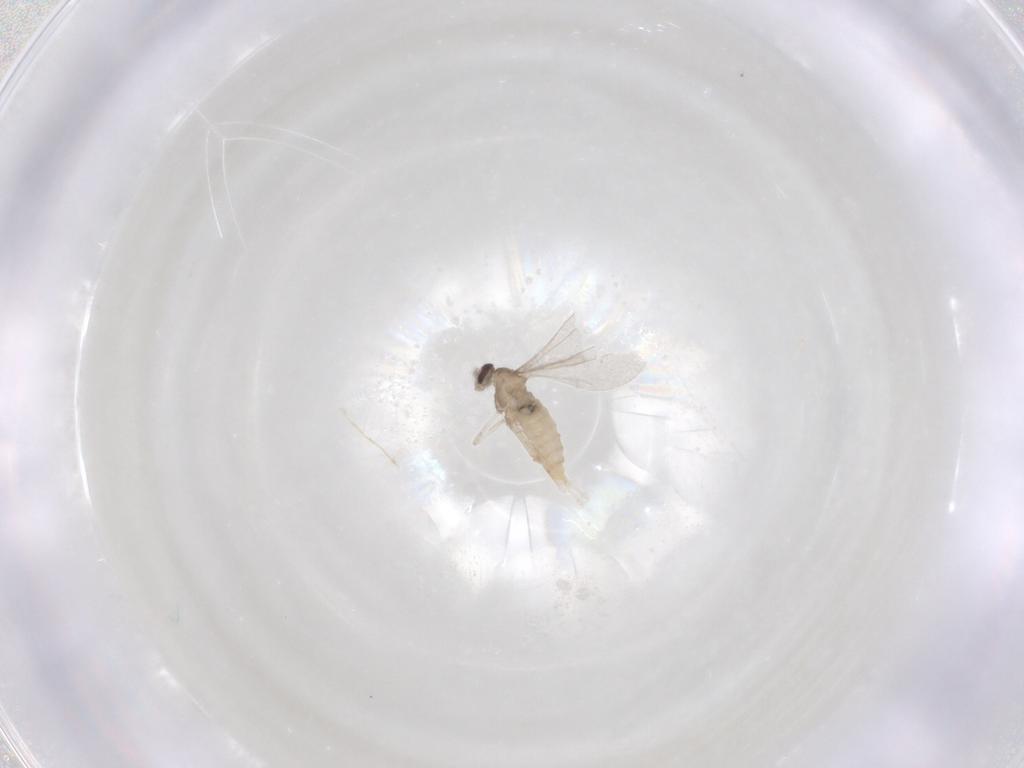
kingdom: Animalia
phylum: Arthropoda
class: Insecta
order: Diptera
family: Cecidomyiidae
